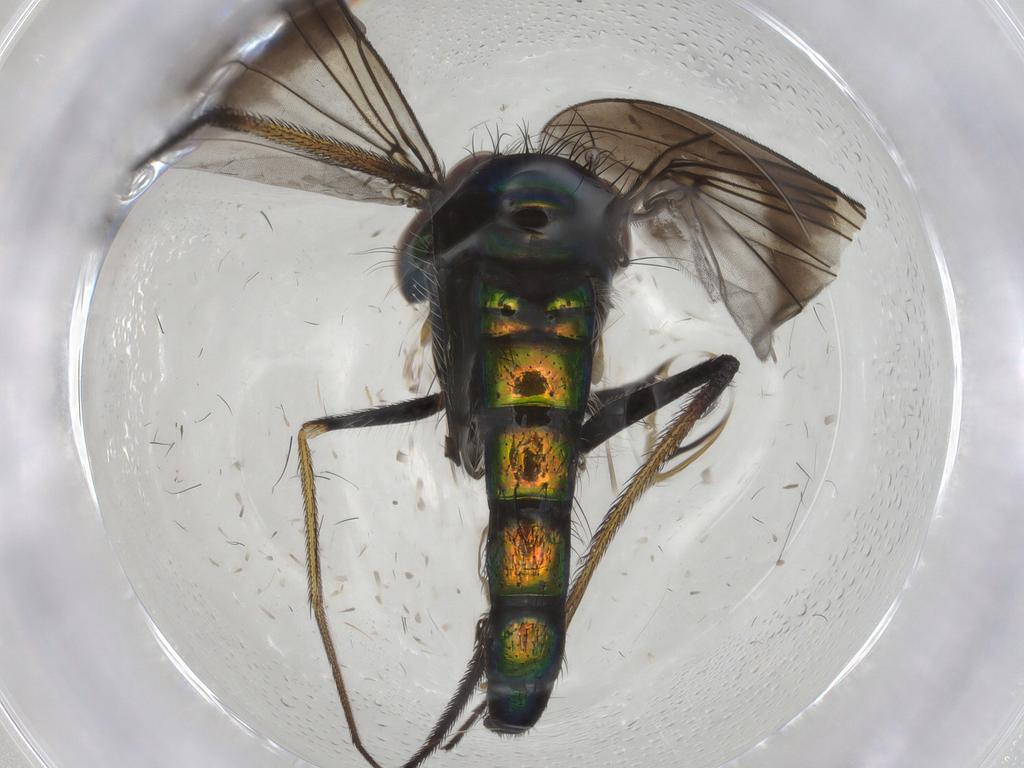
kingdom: Animalia
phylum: Arthropoda
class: Insecta
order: Diptera
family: Dolichopodidae
